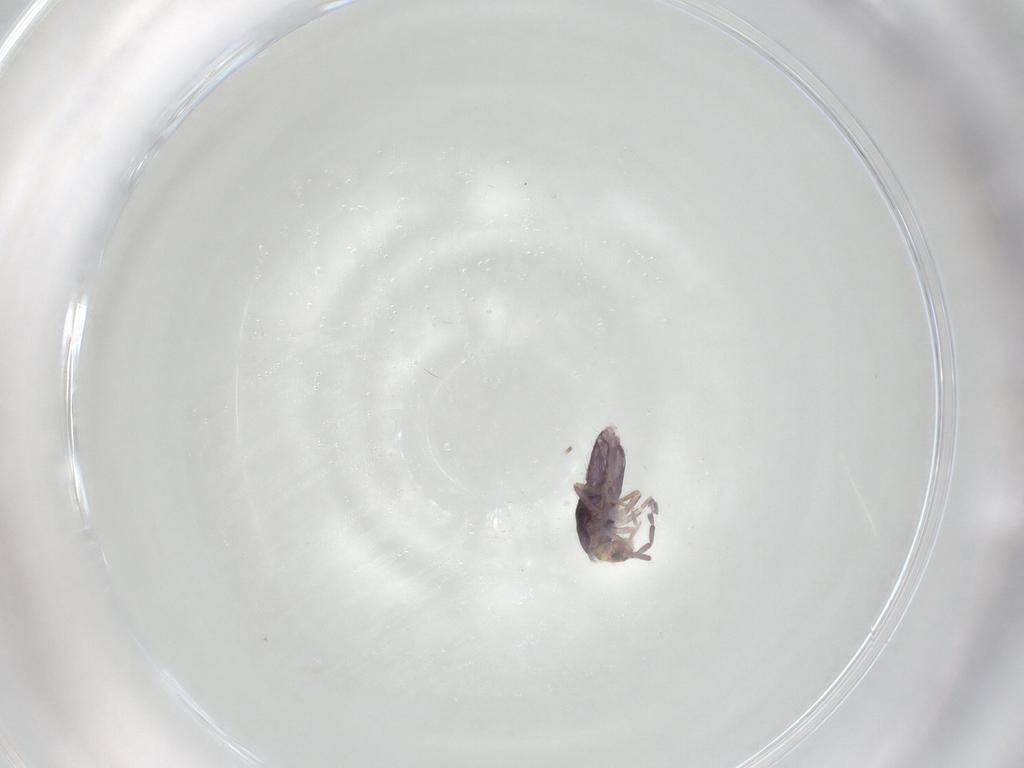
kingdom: Animalia
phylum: Arthropoda
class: Collembola
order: Entomobryomorpha
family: Entomobryidae
